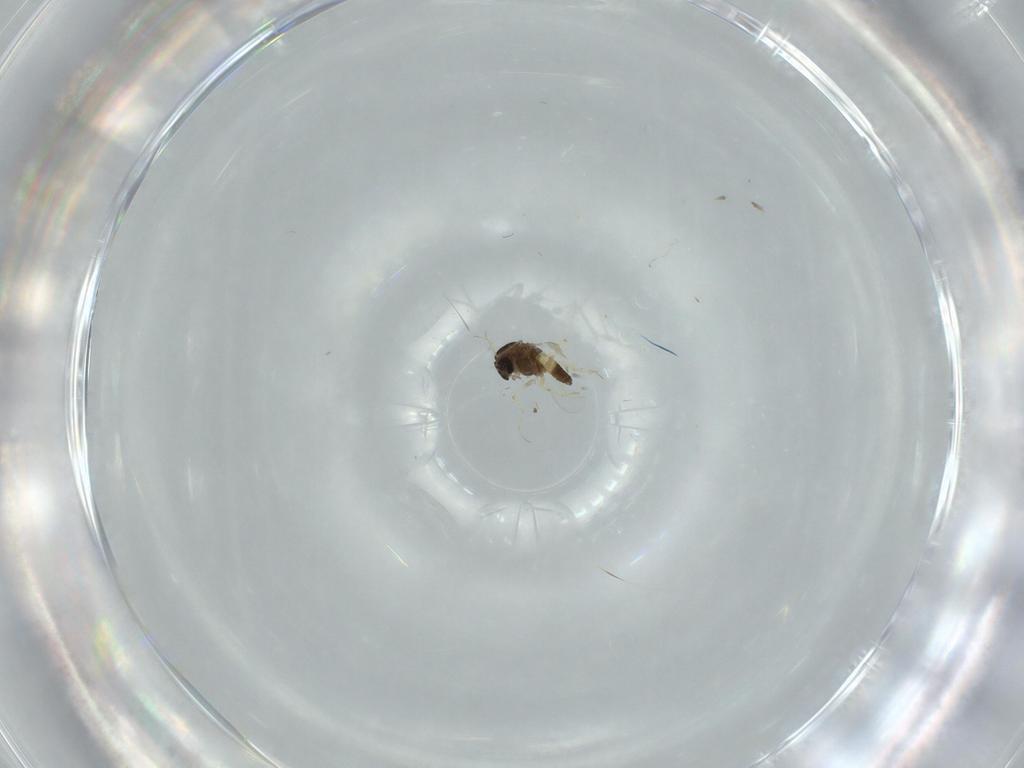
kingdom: Animalia
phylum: Arthropoda
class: Insecta
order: Diptera
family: Chironomidae
